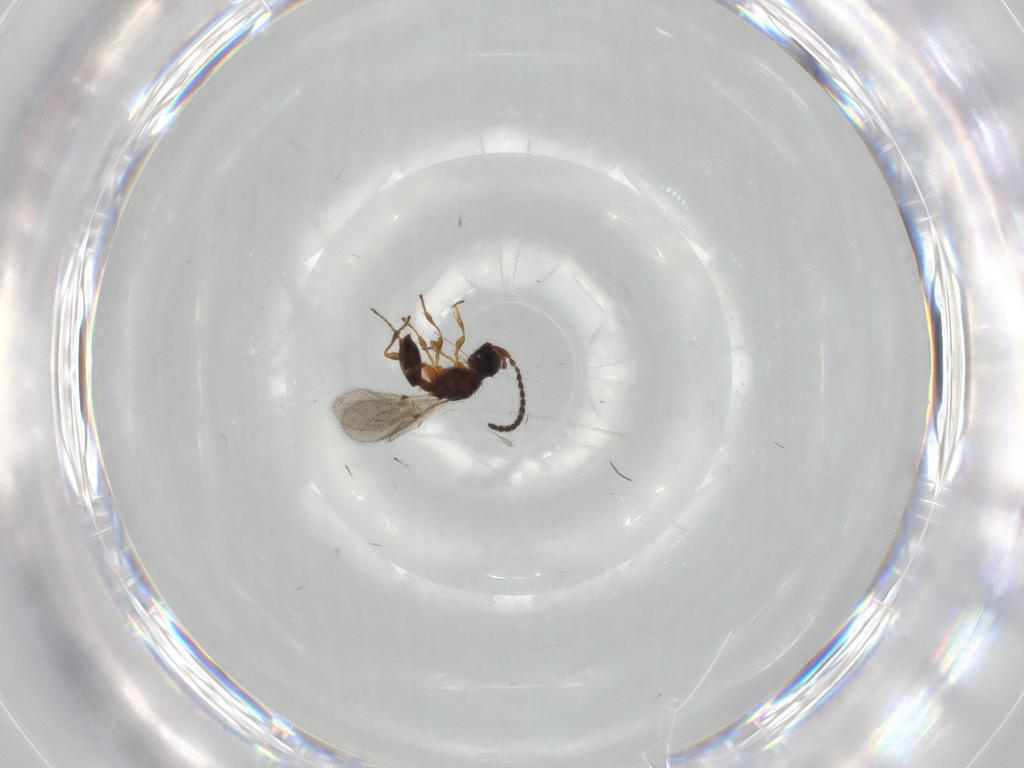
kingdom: Animalia
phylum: Arthropoda
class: Insecta
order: Hymenoptera
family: Diapriidae
